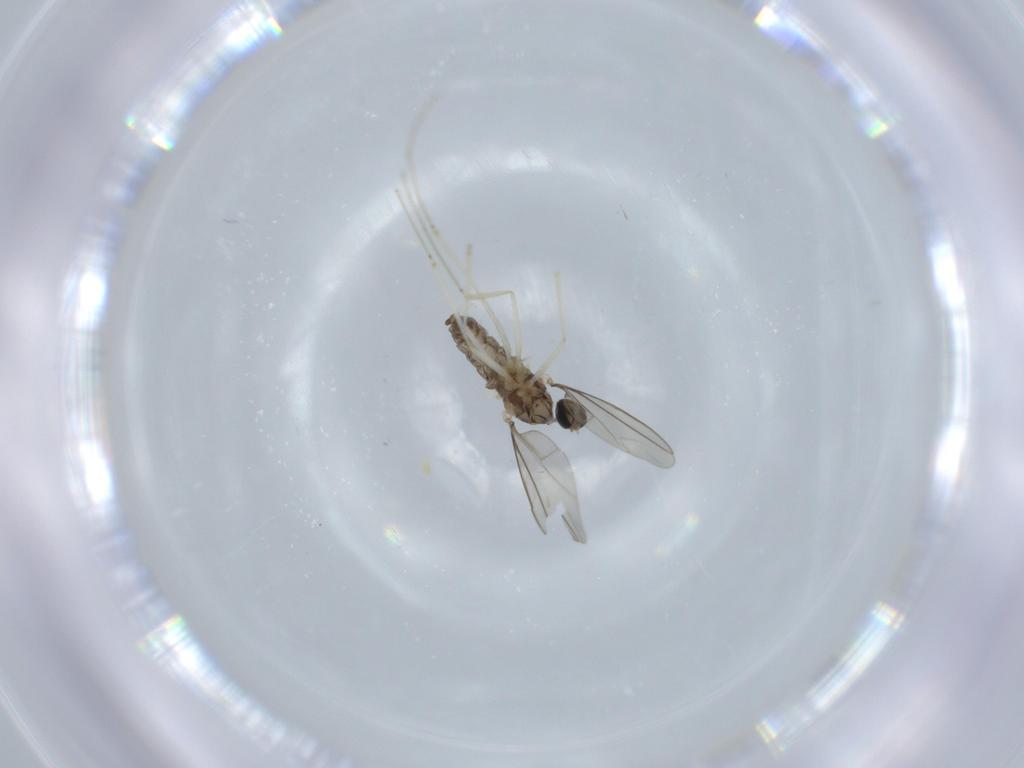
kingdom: Animalia
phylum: Arthropoda
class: Insecta
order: Diptera
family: Cecidomyiidae
